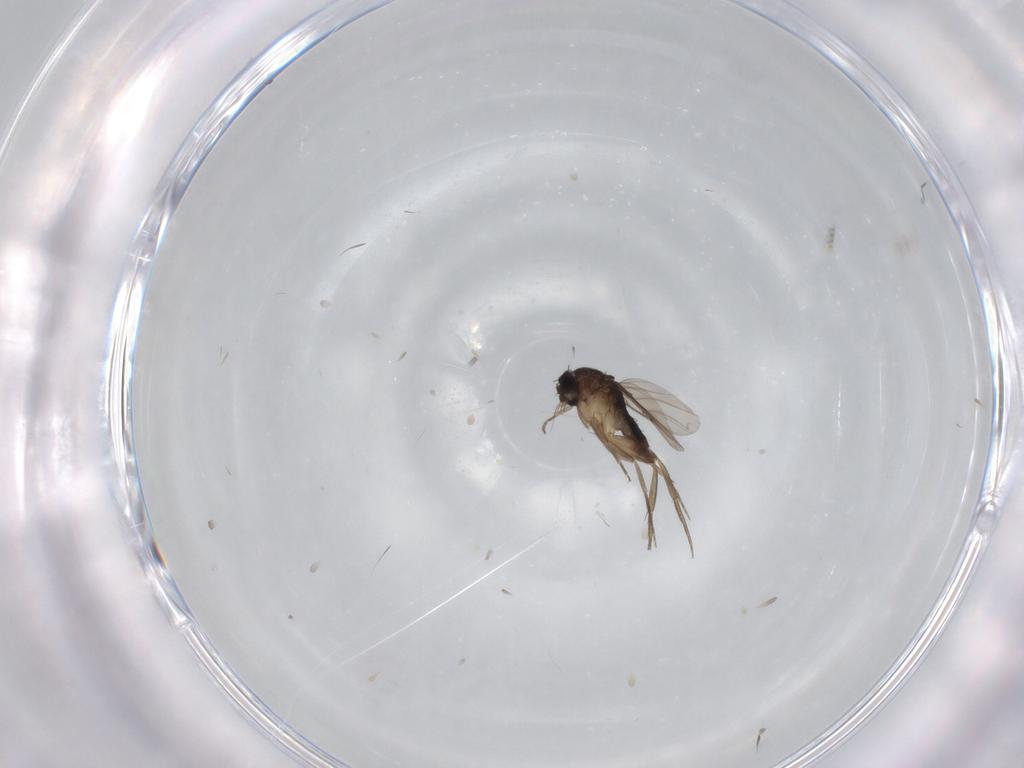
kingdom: Animalia
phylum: Arthropoda
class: Insecta
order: Diptera
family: Phoridae
